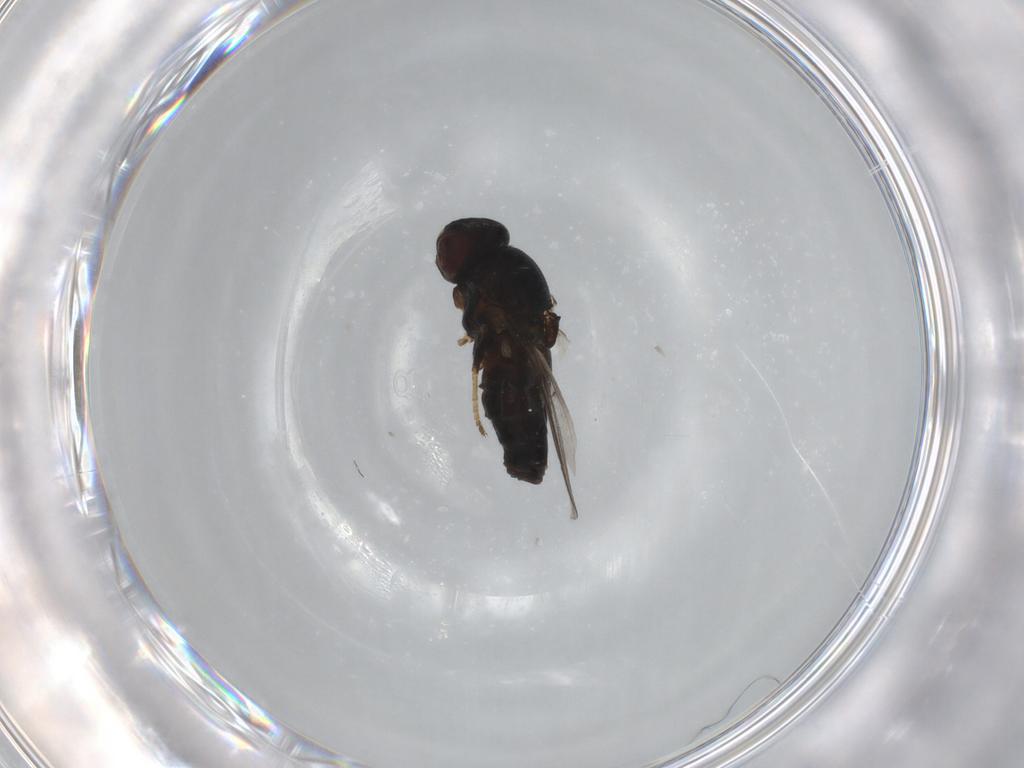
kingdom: Animalia
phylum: Arthropoda
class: Insecta
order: Diptera
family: Chloropidae
